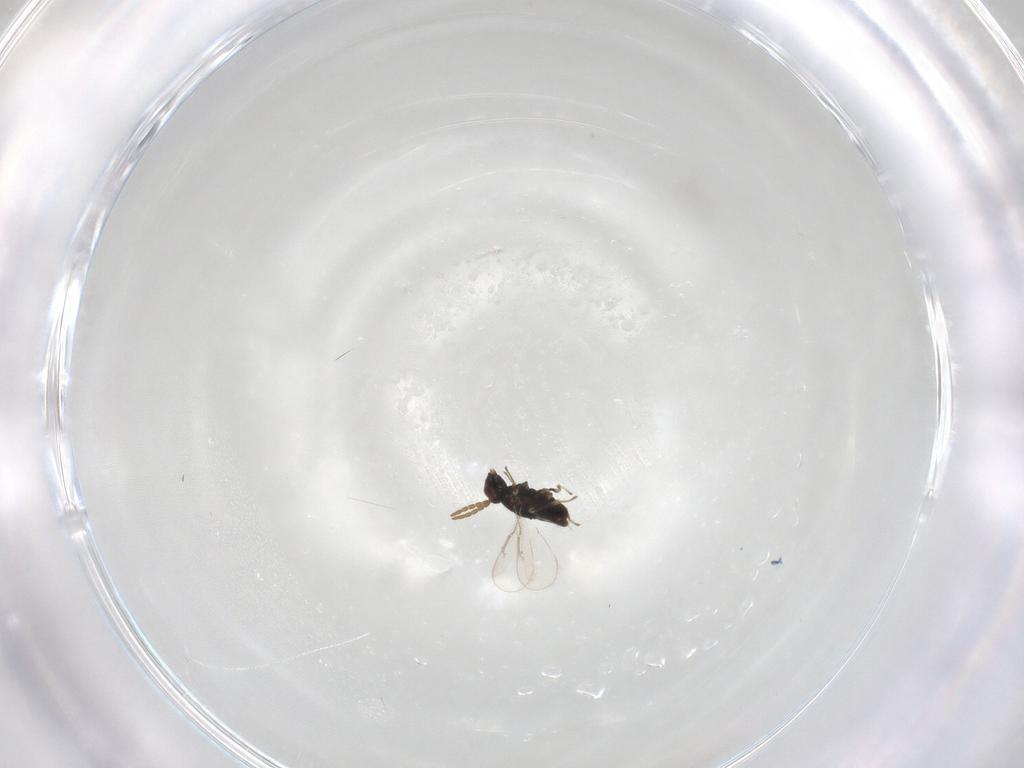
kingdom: Animalia
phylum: Arthropoda
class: Insecta
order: Hymenoptera
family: Aphelinidae
